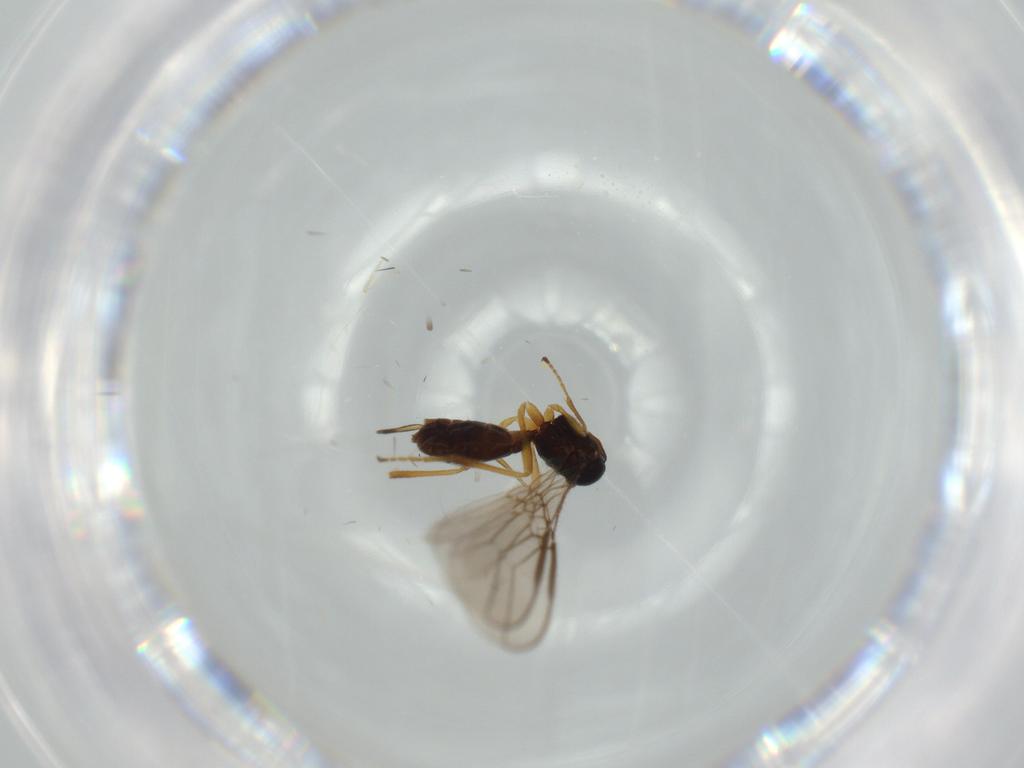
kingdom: Animalia
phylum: Arthropoda
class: Insecta
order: Hymenoptera
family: Braconidae
